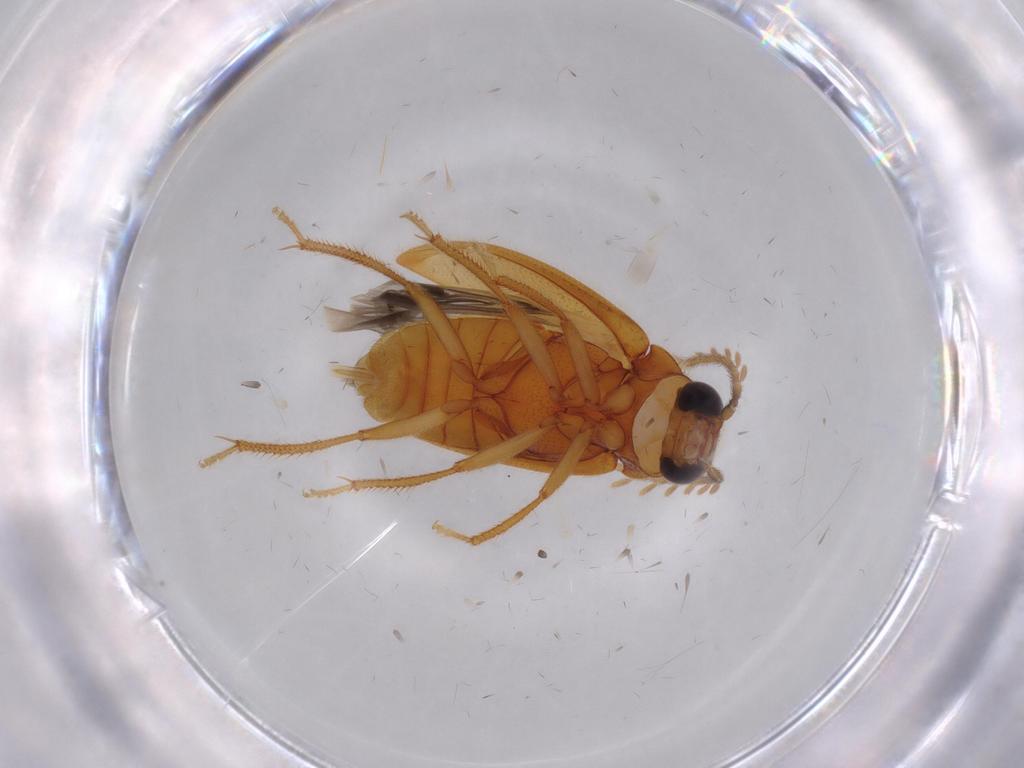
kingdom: Animalia
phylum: Arthropoda
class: Insecta
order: Coleoptera
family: Curculionidae
